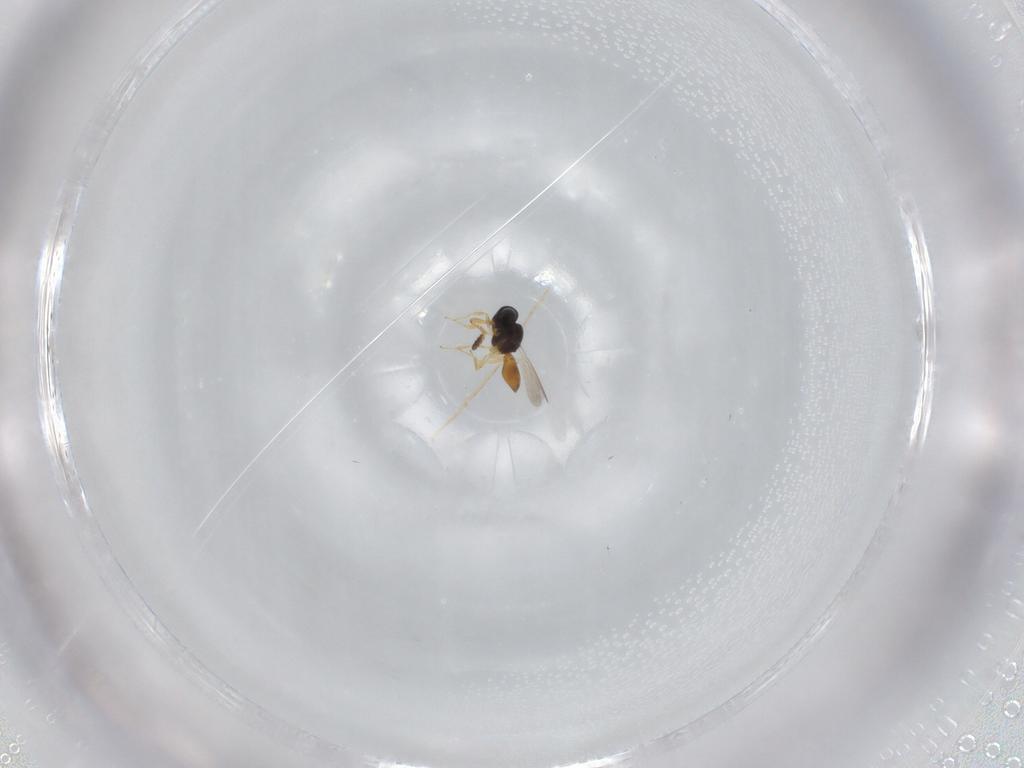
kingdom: Animalia
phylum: Arthropoda
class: Insecta
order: Hymenoptera
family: Scelionidae
